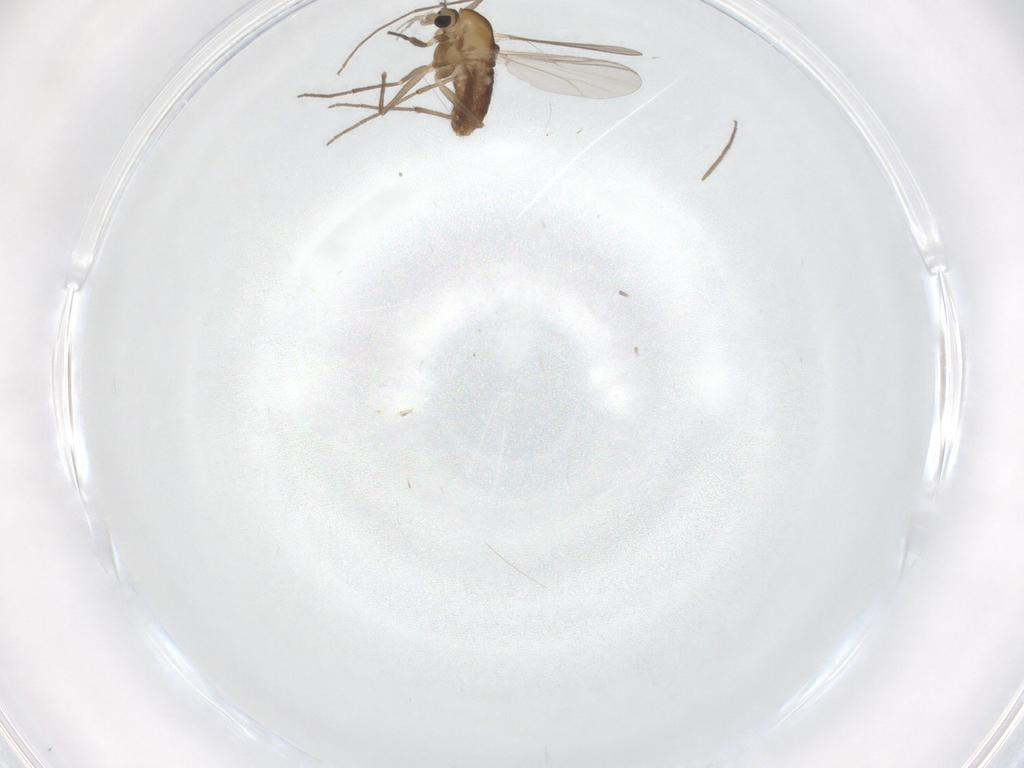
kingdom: Animalia
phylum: Arthropoda
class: Insecta
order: Diptera
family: Chironomidae
